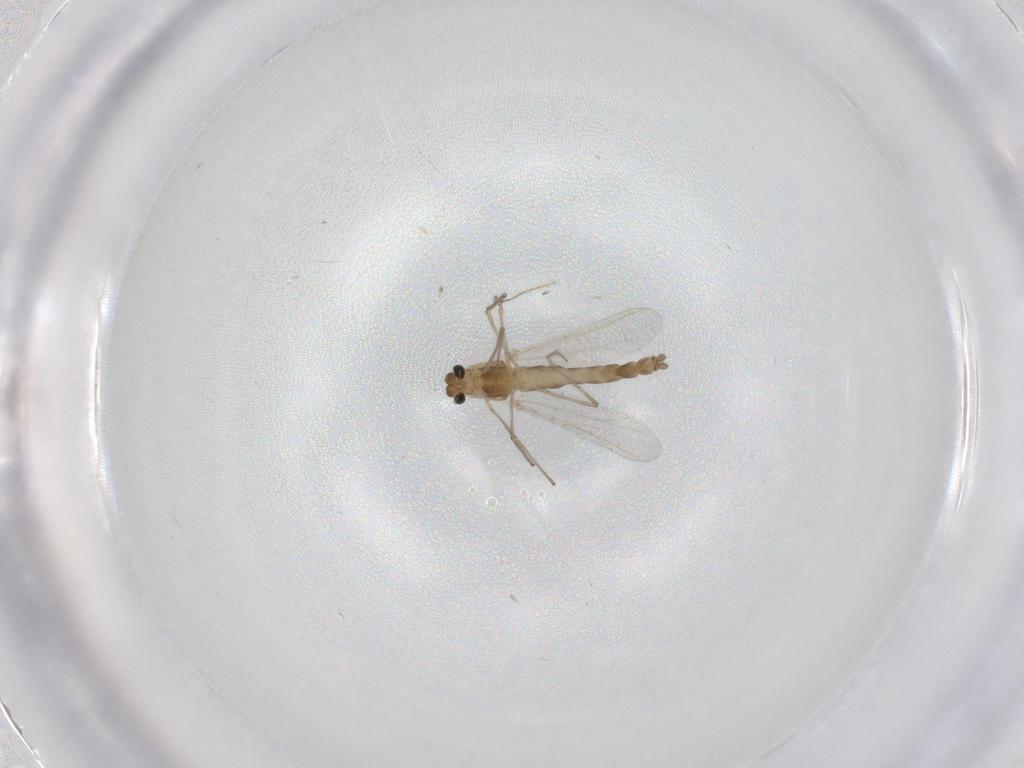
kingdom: Animalia
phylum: Arthropoda
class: Insecta
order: Diptera
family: Chironomidae
